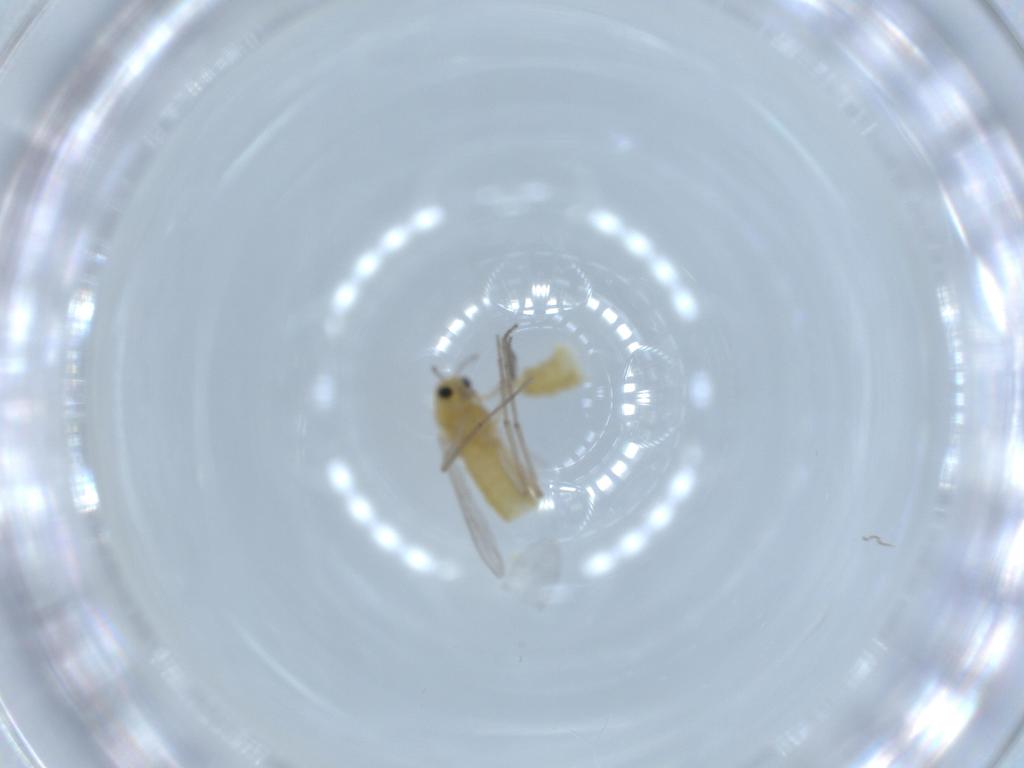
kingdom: Animalia
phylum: Arthropoda
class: Insecta
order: Diptera
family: Chironomidae
